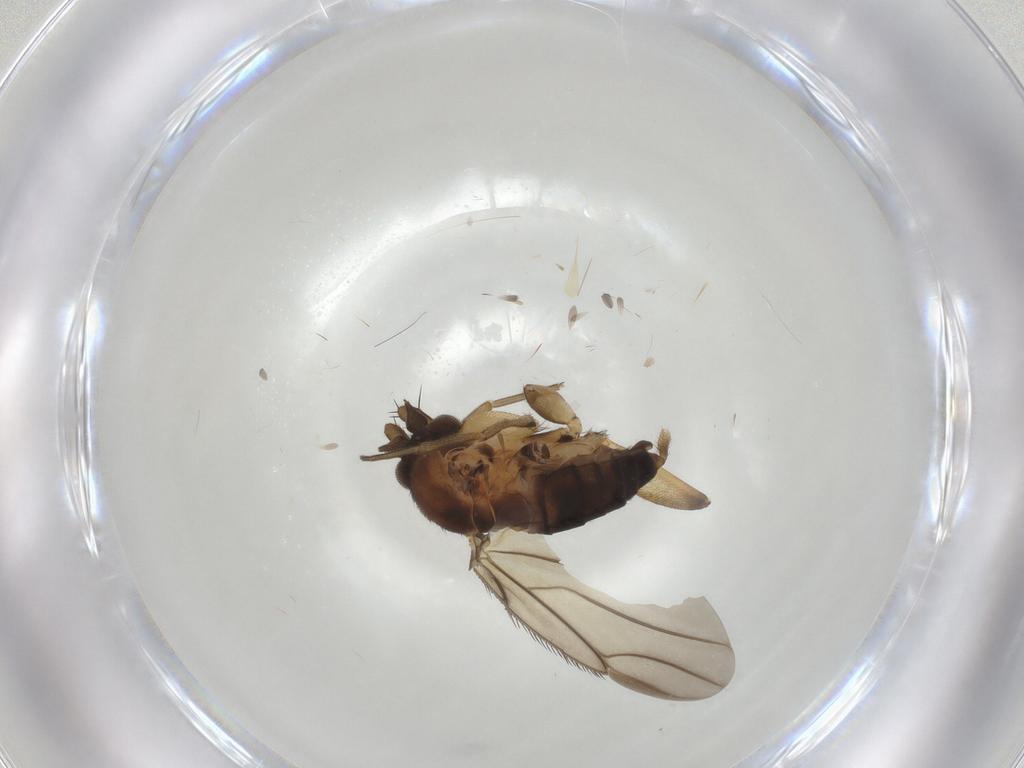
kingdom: Animalia
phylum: Arthropoda
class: Insecta
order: Diptera
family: Phoridae
